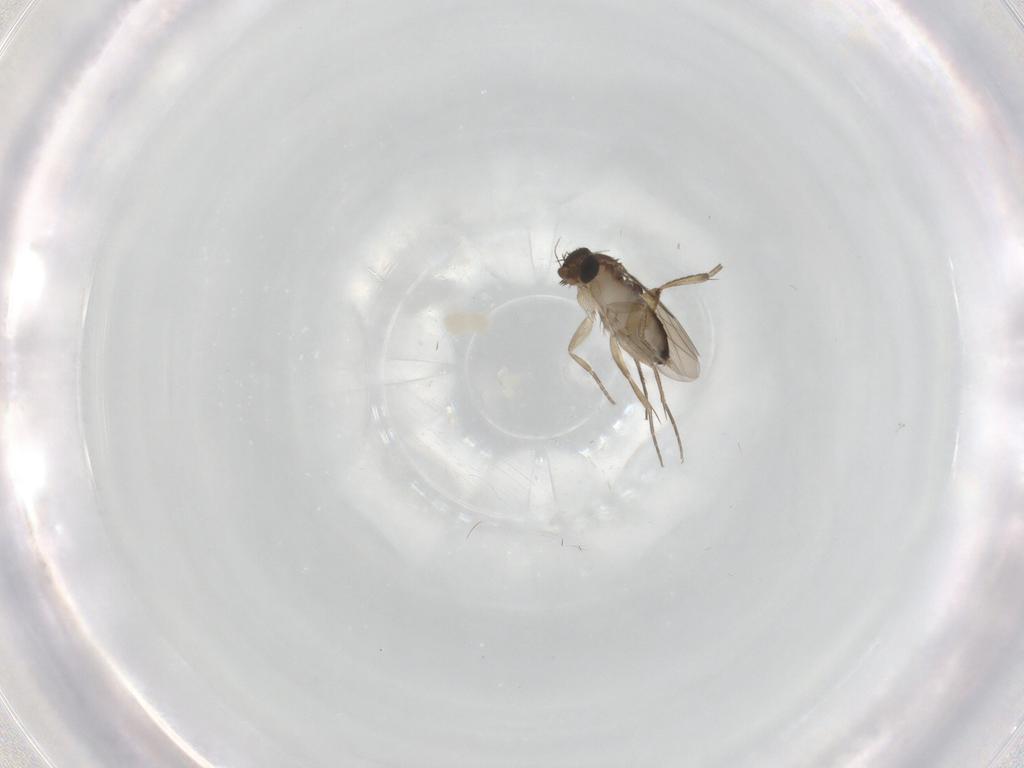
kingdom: Animalia
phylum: Arthropoda
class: Insecta
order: Diptera
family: Phoridae
